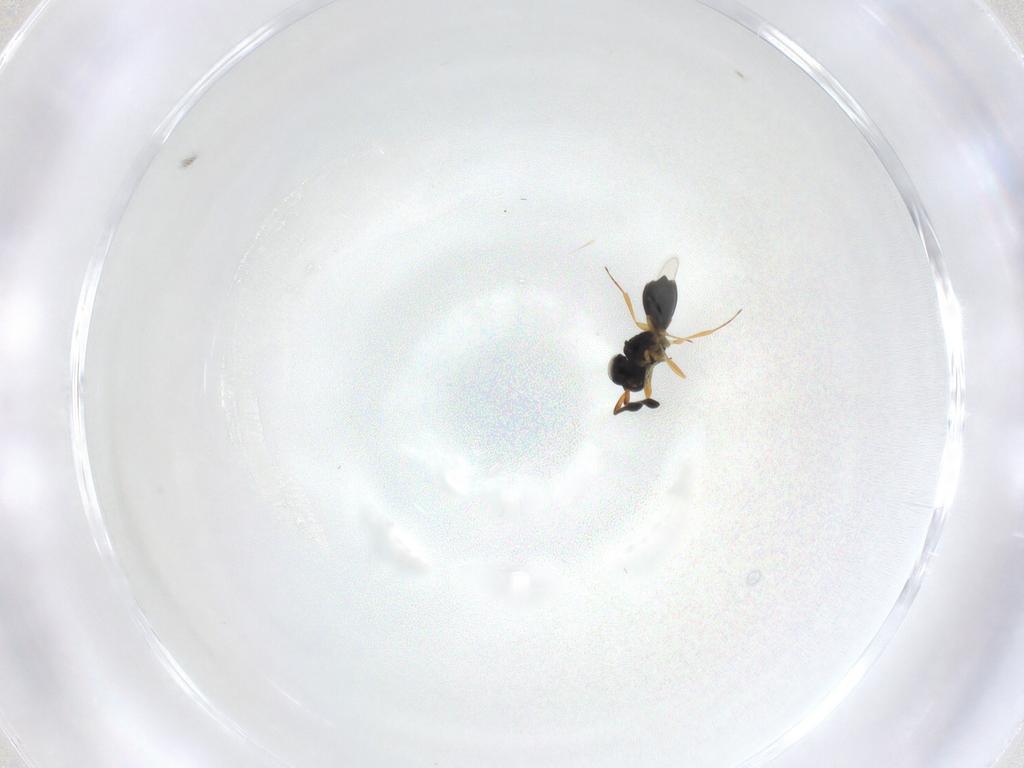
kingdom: Animalia
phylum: Arthropoda
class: Insecta
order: Hymenoptera
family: Scelionidae
